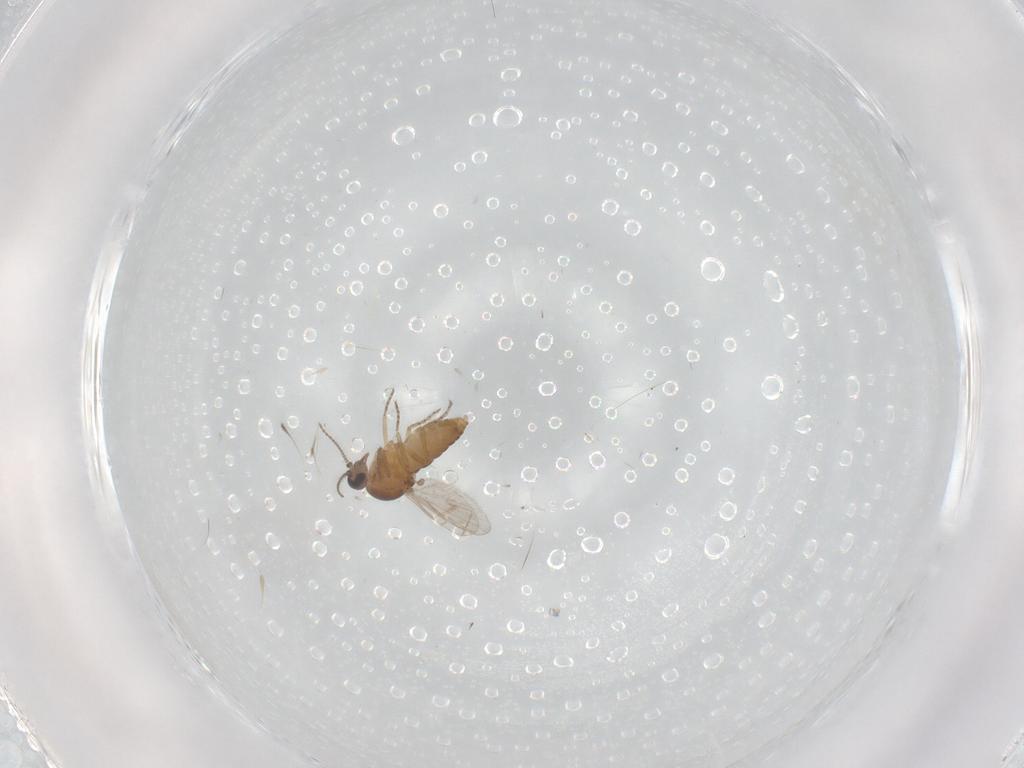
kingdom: Animalia
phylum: Arthropoda
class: Insecta
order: Diptera
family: Ceratopogonidae
